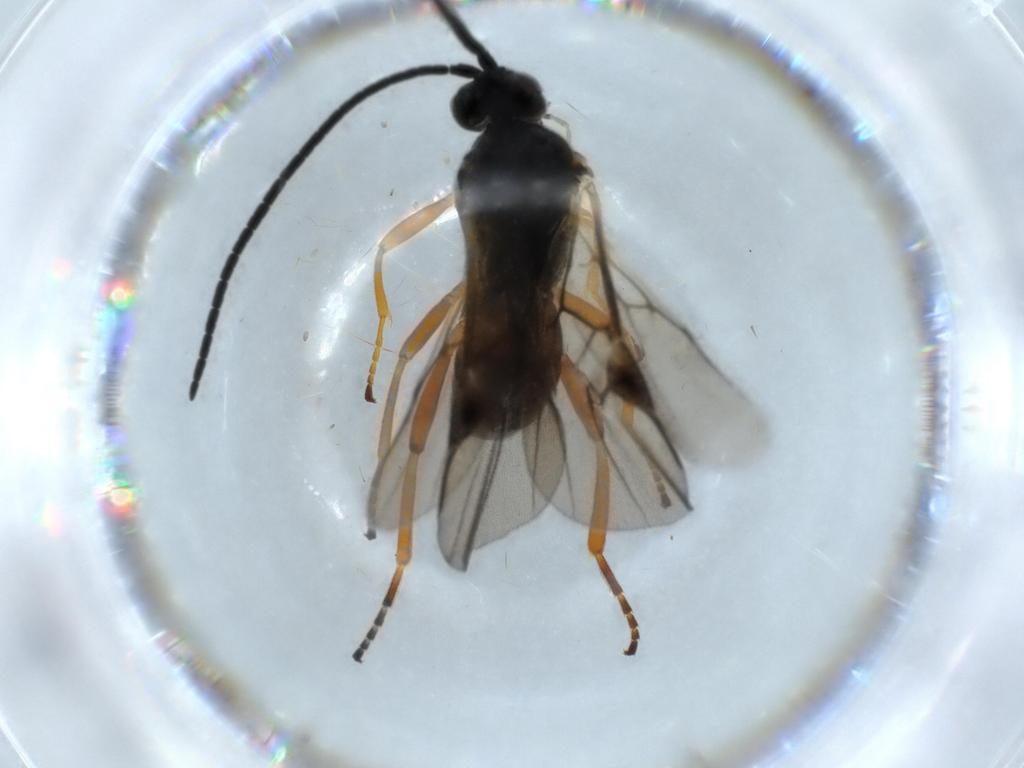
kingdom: Animalia
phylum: Arthropoda
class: Insecta
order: Hymenoptera
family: Braconidae
